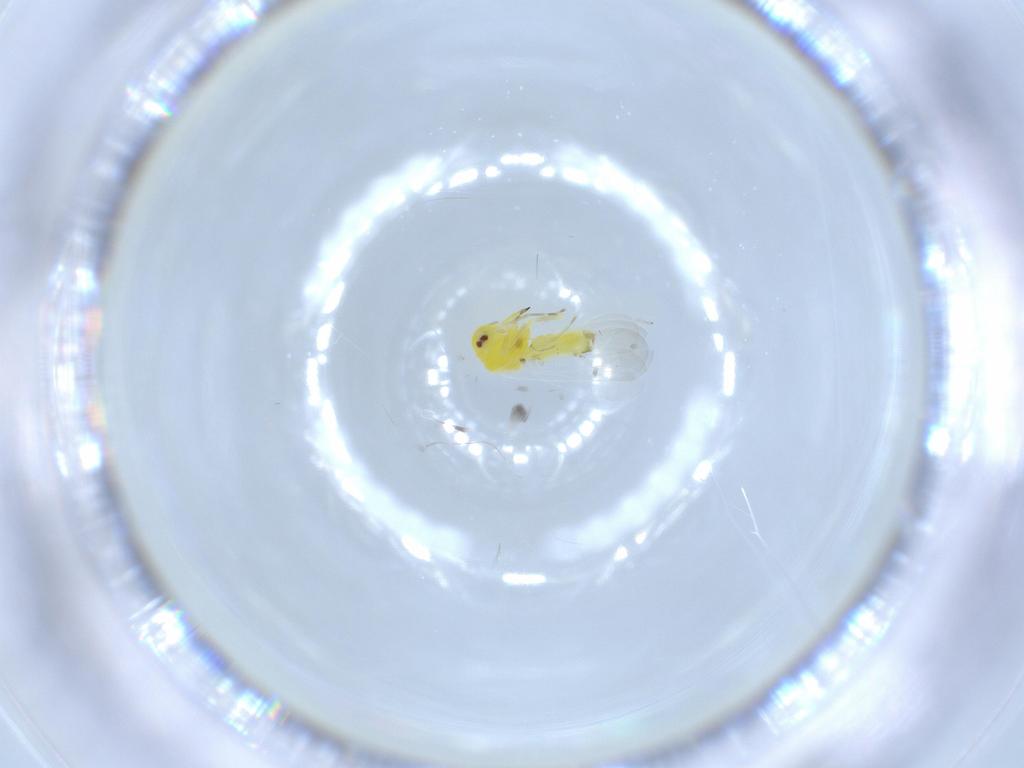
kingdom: Animalia
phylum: Arthropoda
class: Insecta
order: Hemiptera
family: Aleyrodidae
